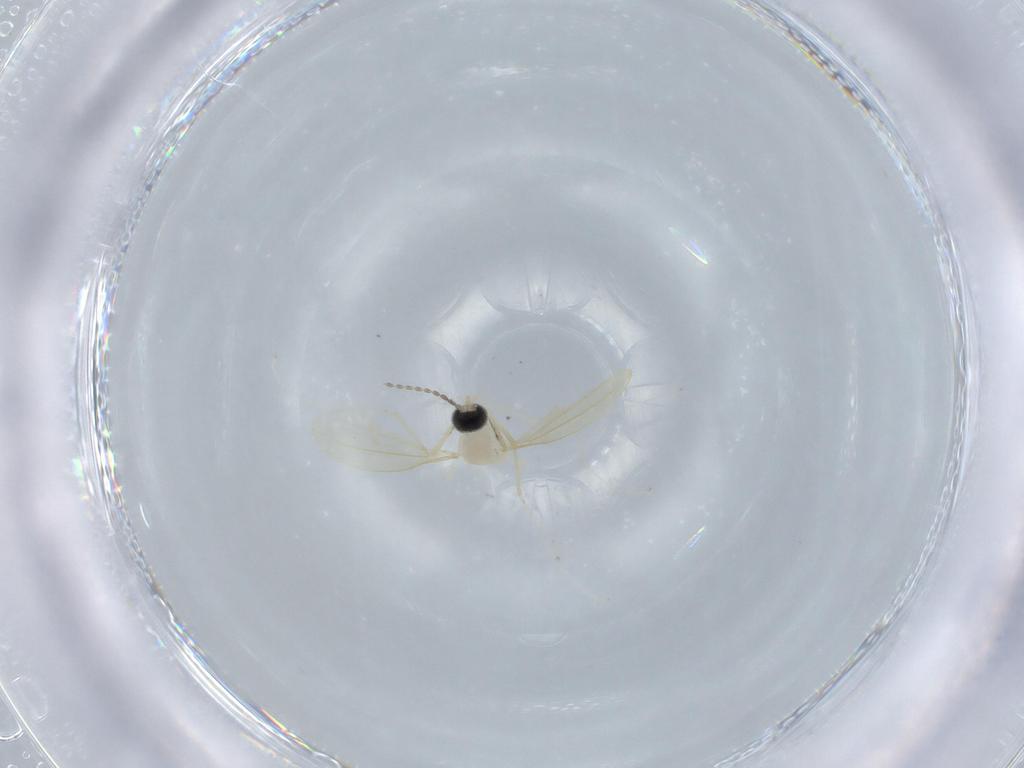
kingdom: Animalia
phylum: Arthropoda
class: Insecta
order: Diptera
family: Cecidomyiidae
